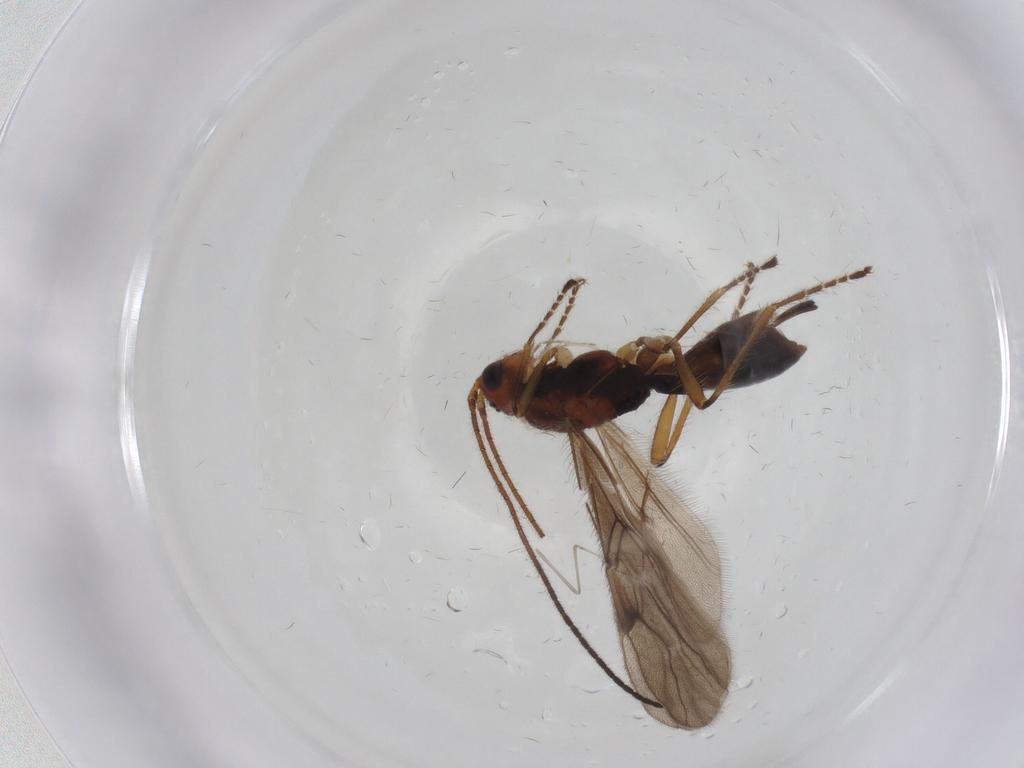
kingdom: Animalia
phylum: Arthropoda
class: Insecta
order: Hymenoptera
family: Braconidae
